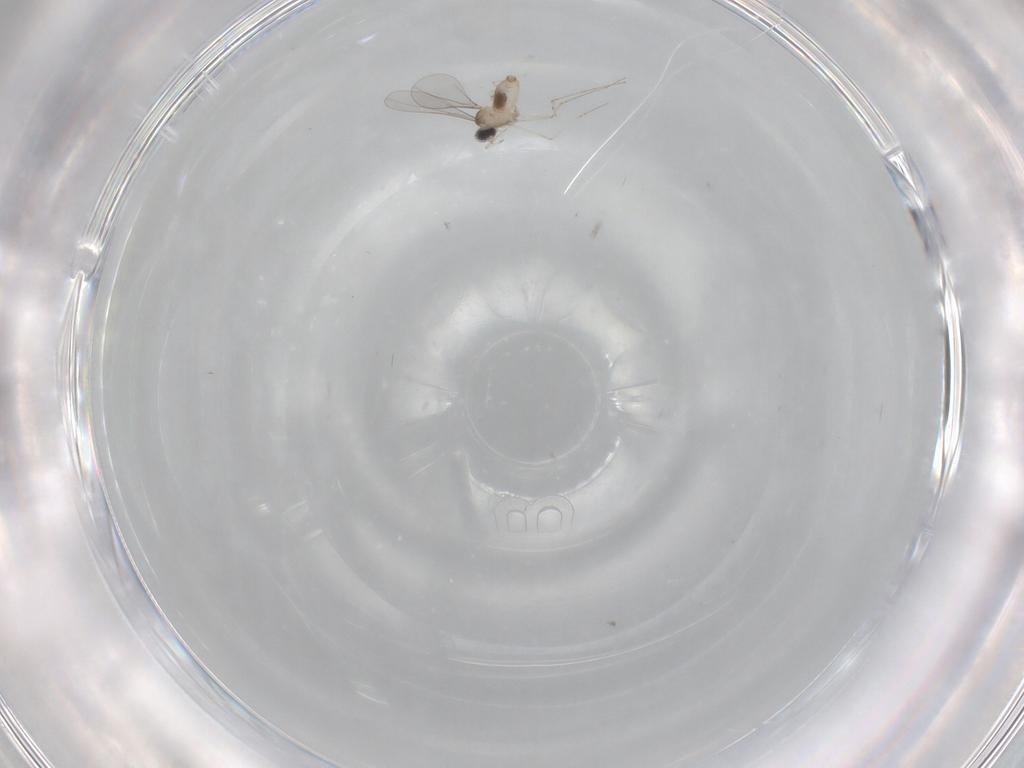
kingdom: Animalia
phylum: Arthropoda
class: Insecta
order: Diptera
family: Cecidomyiidae
